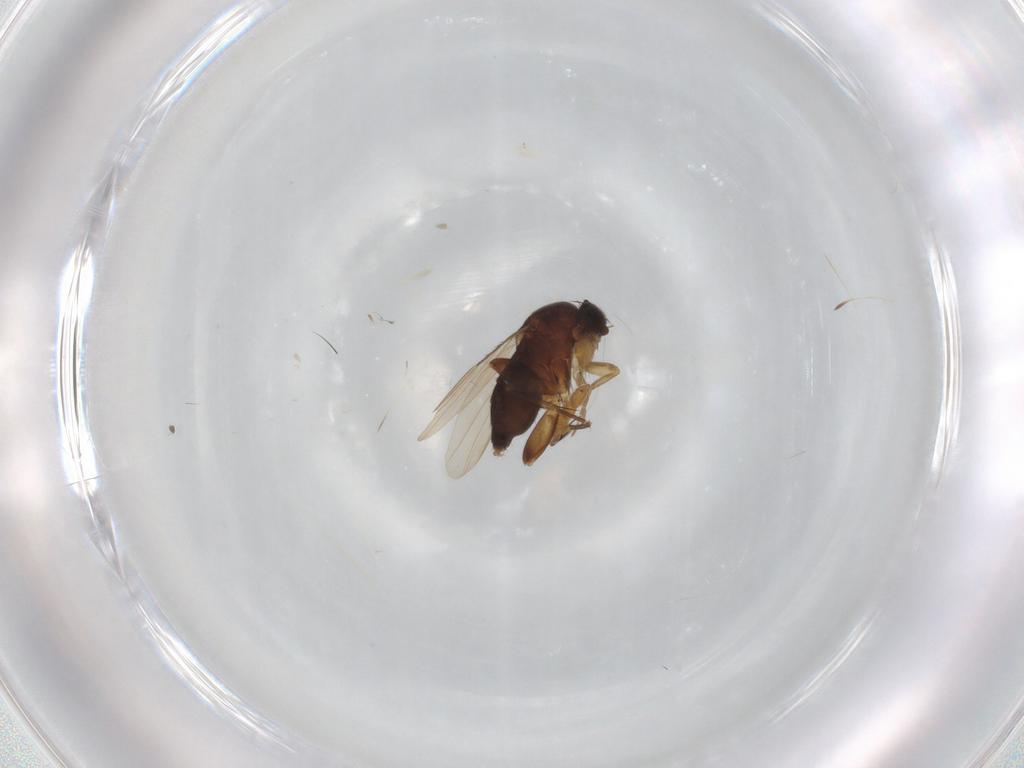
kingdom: Animalia
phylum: Arthropoda
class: Insecta
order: Diptera
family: Phoridae
